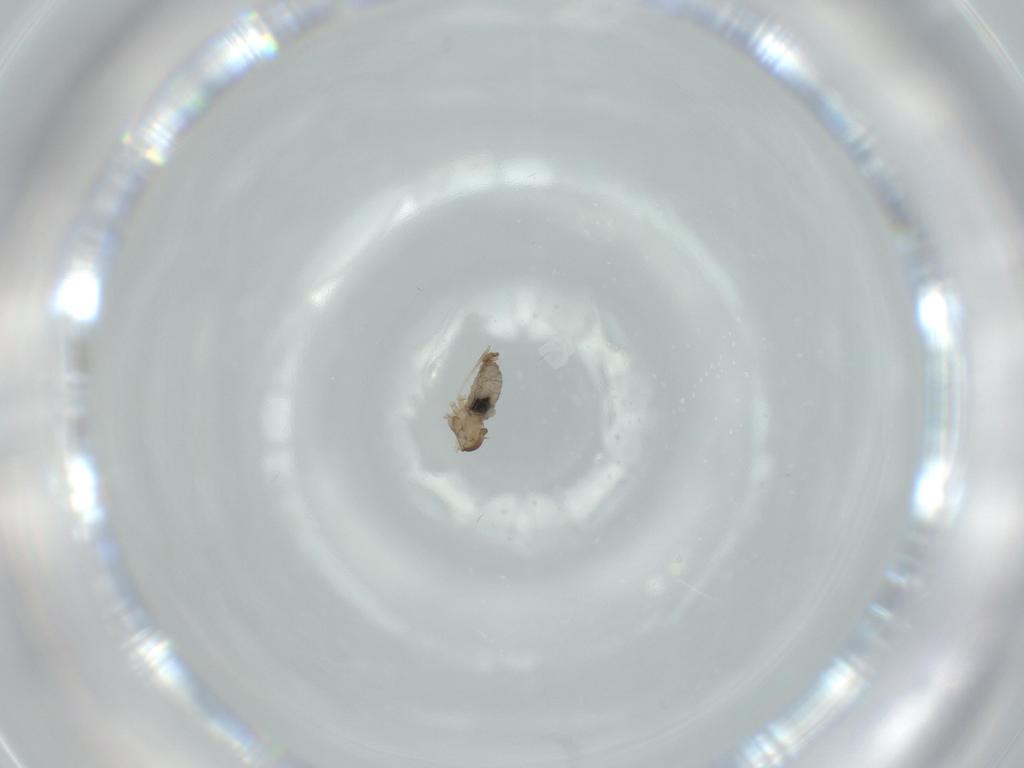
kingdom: Animalia
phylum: Arthropoda
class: Insecta
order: Diptera
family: Cecidomyiidae
